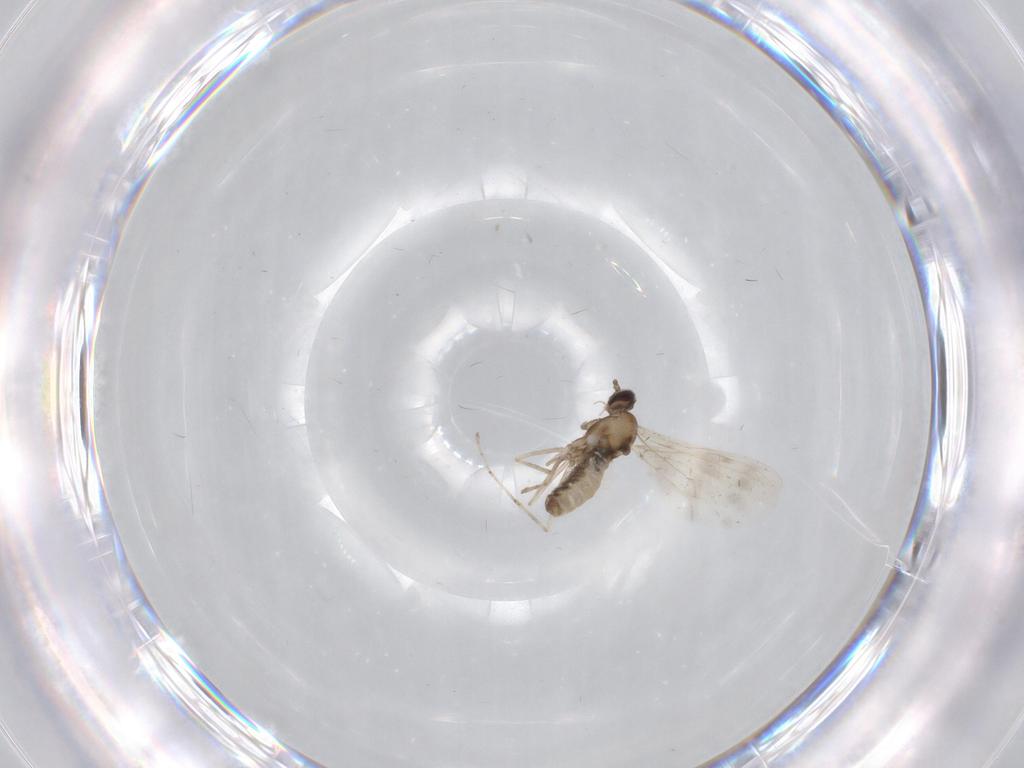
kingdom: Animalia
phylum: Arthropoda
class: Insecta
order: Diptera
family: Cecidomyiidae
